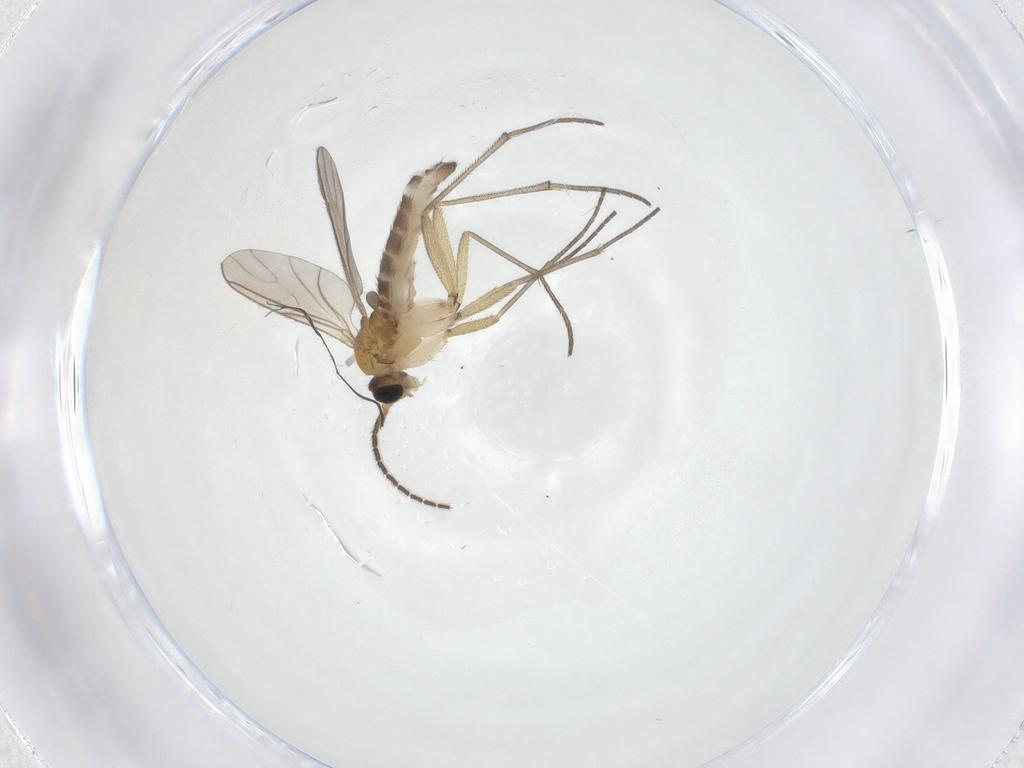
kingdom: Animalia
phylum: Arthropoda
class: Insecta
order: Diptera
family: Sciaridae
